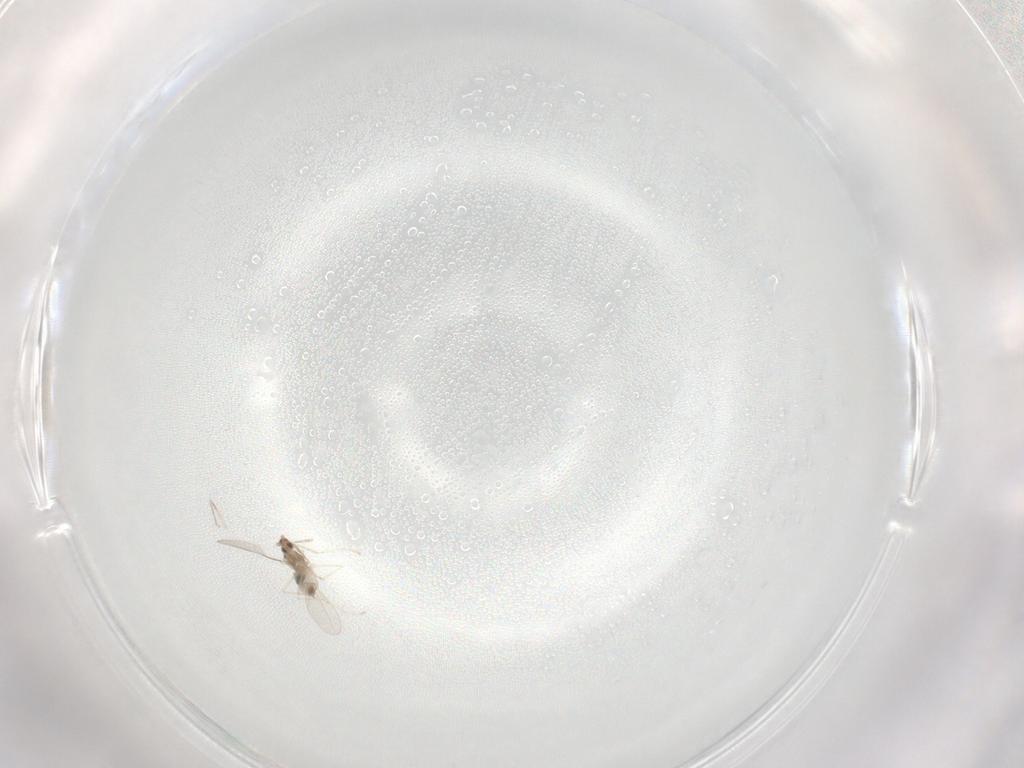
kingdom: Animalia
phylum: Arthropoda
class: Insecta
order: Diptera
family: Cecidomyiidae
